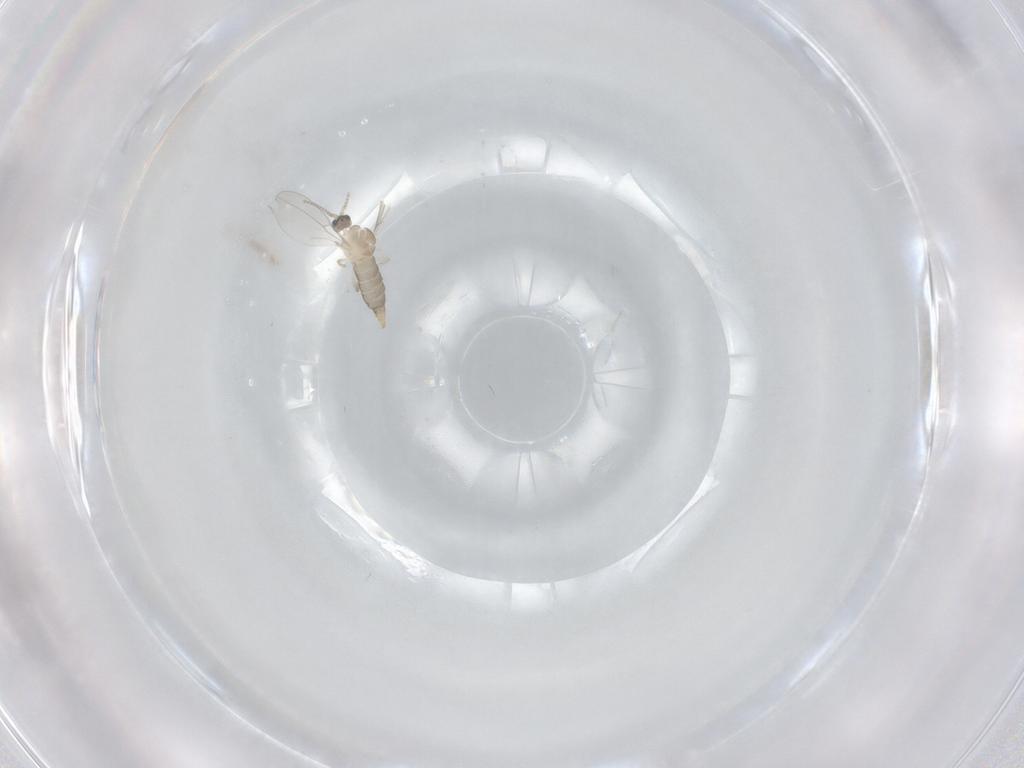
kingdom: Animalia
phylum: Arthropoda
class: Insecta
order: Diptera
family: Cecidomyiidae
